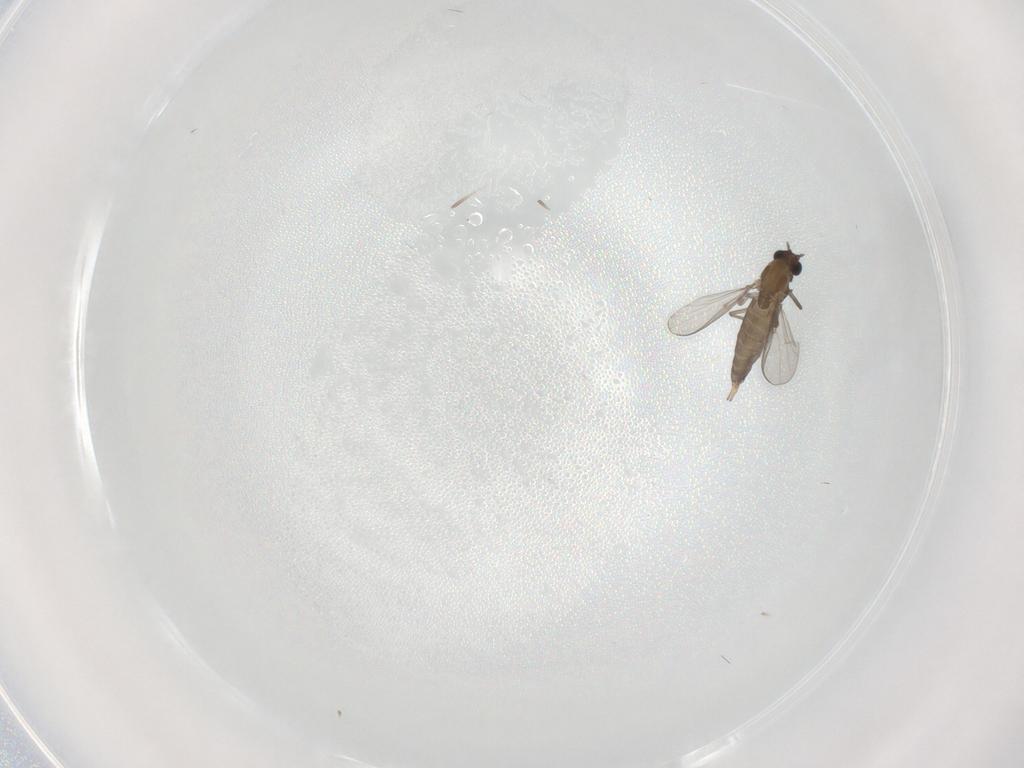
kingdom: Animalia
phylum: Arthropoda
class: Insecta
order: Diptera
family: Chironomidae
